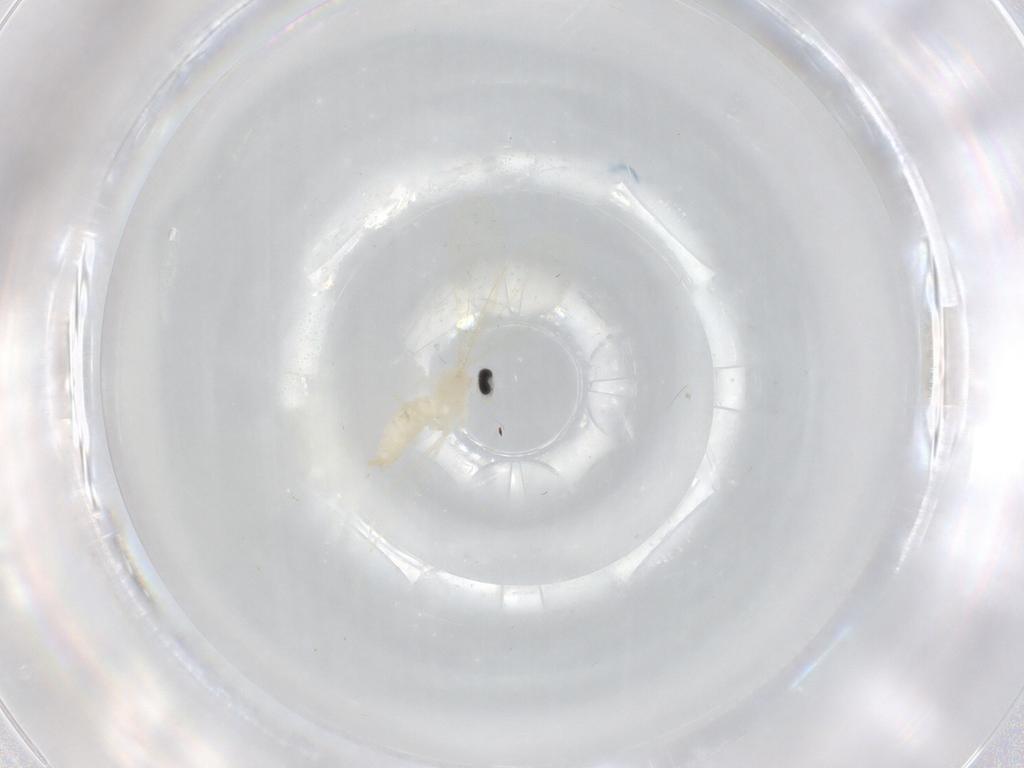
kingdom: Animalia
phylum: Arthropoda
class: Insecta
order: Diptera
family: Cecidomyiidae
